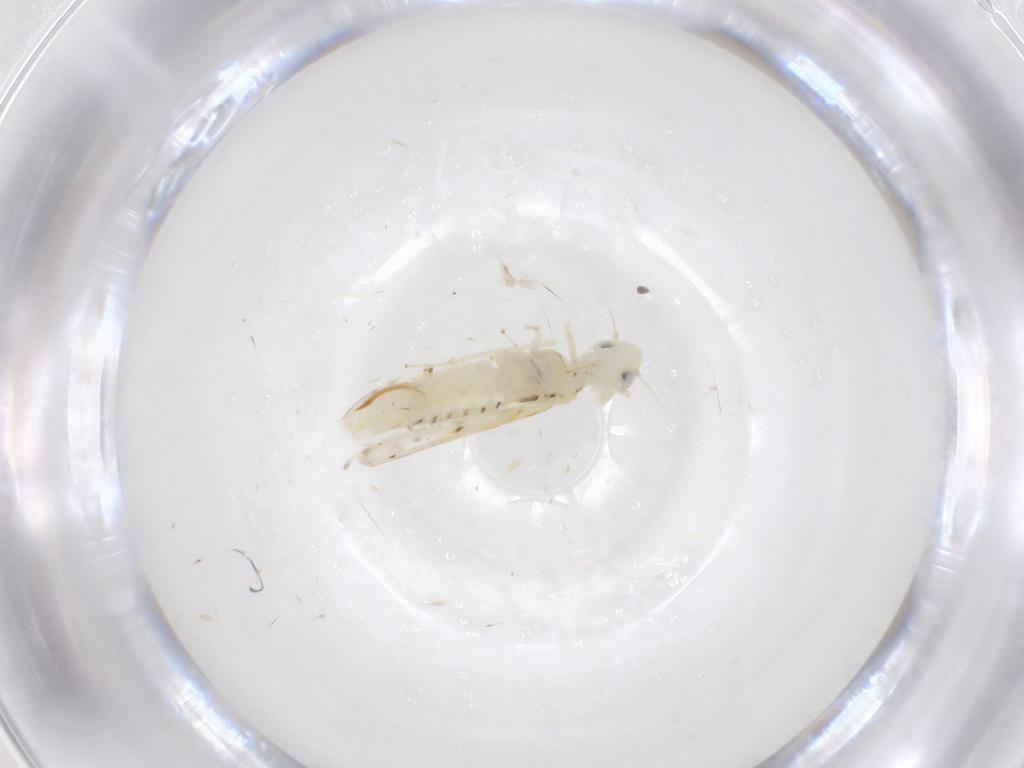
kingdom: Animalia
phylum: Arthropoda
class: Insecta
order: Hemiptera
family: Cicadellidae
